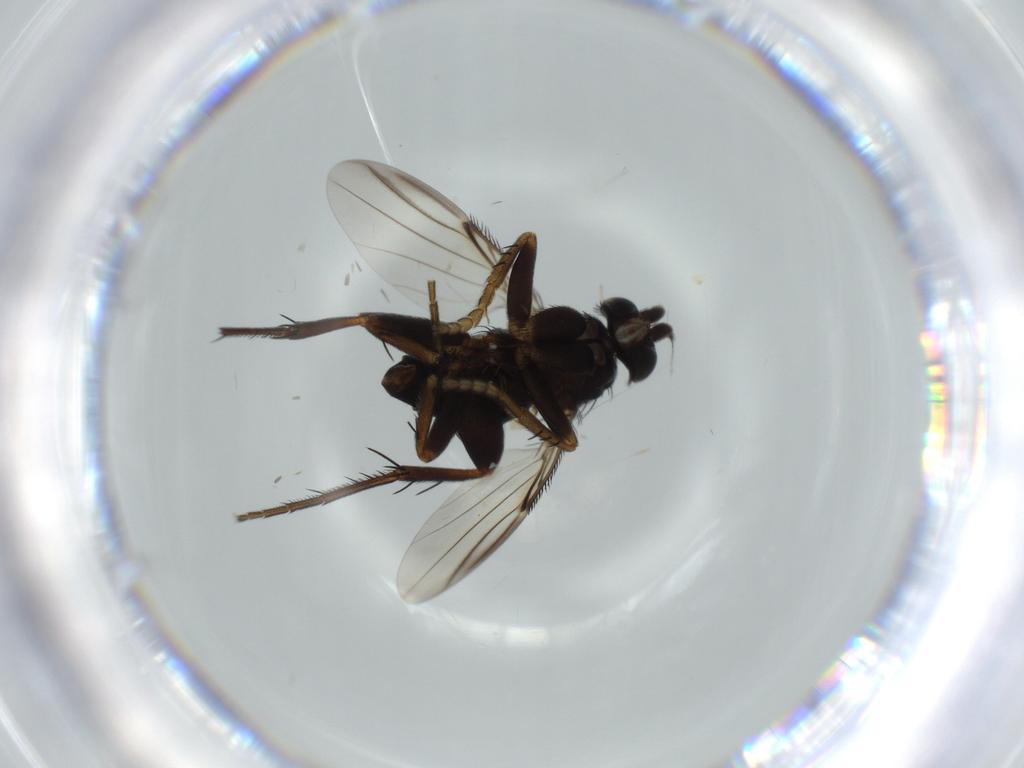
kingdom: Animalia
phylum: Arthropoda
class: Insecta
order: Diptera
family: Phoridae
